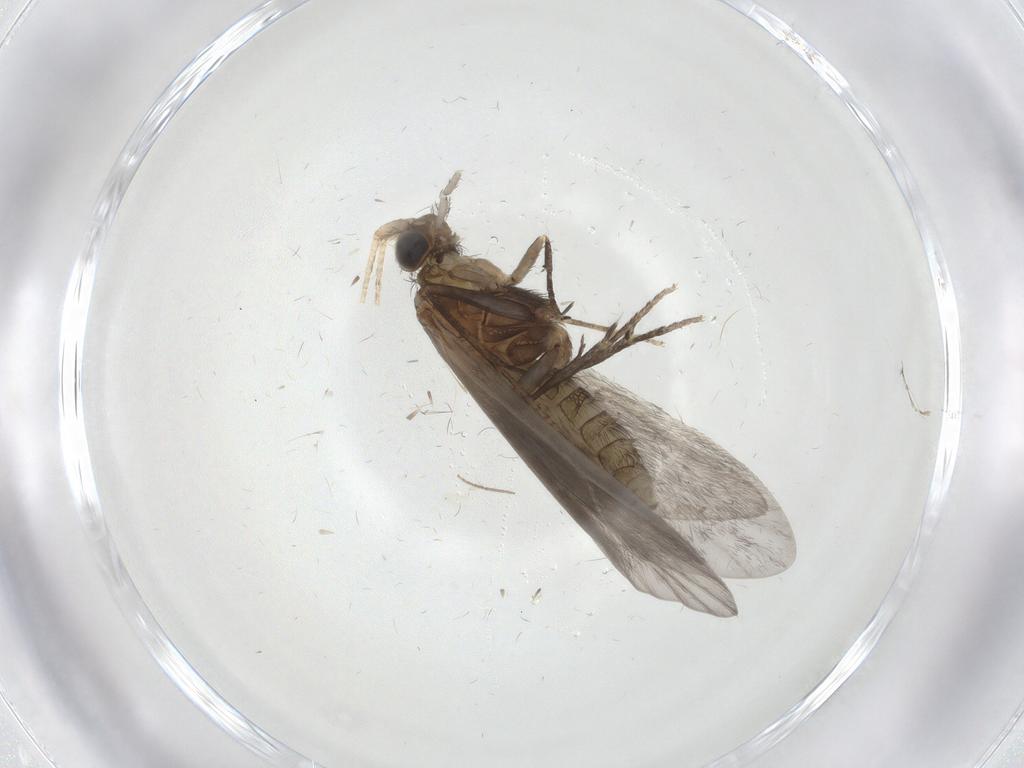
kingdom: Animalia
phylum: Arthropoda
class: Insecta
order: Trichoptera
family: Helicopsychidae
